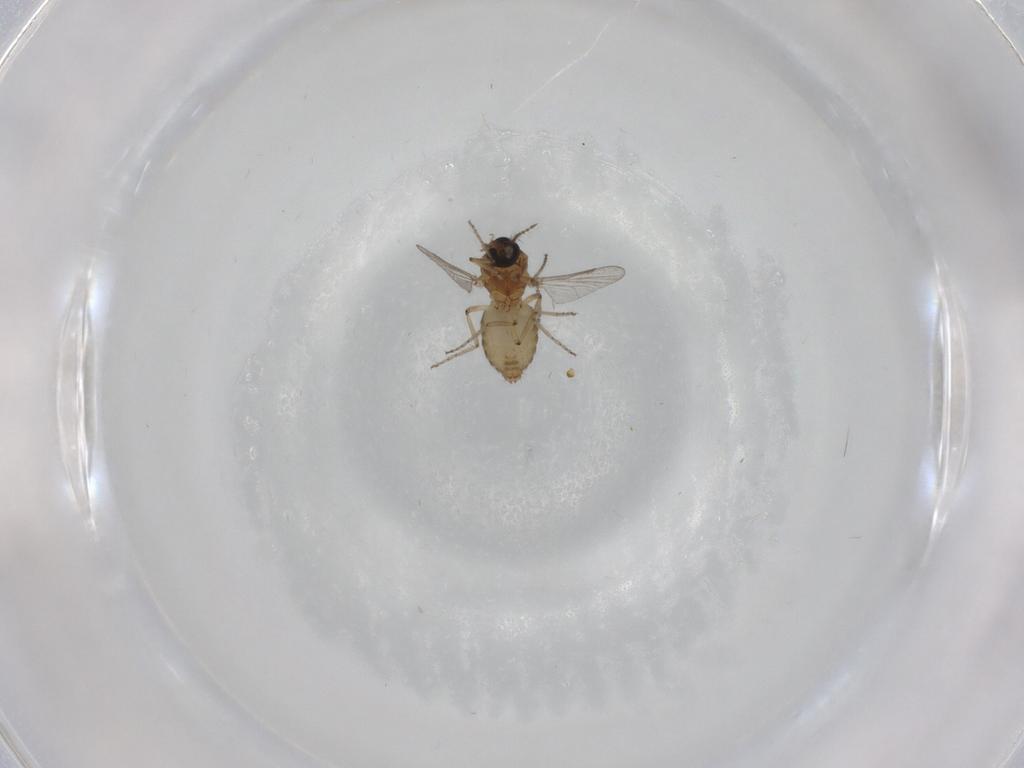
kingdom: Animalia
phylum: Arthropoda
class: Insecta
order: Diptera
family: Ceratopogonidae
